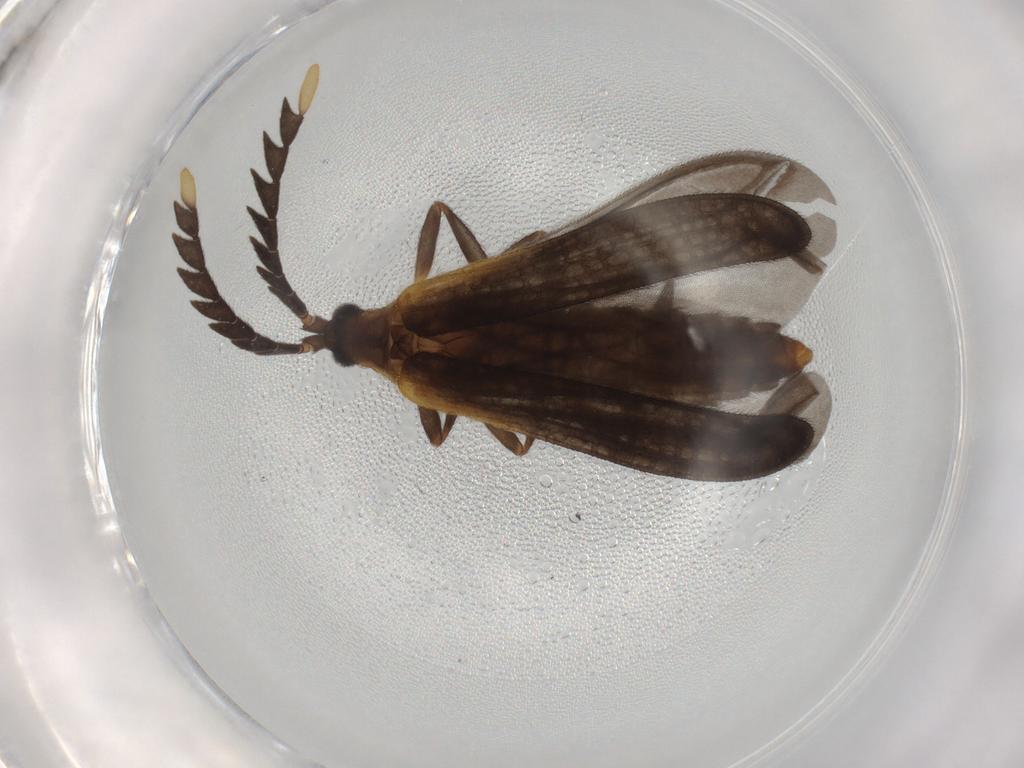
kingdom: Animalia
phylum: Arthropoda
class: Insecta
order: Coleoptera
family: Lycidae
